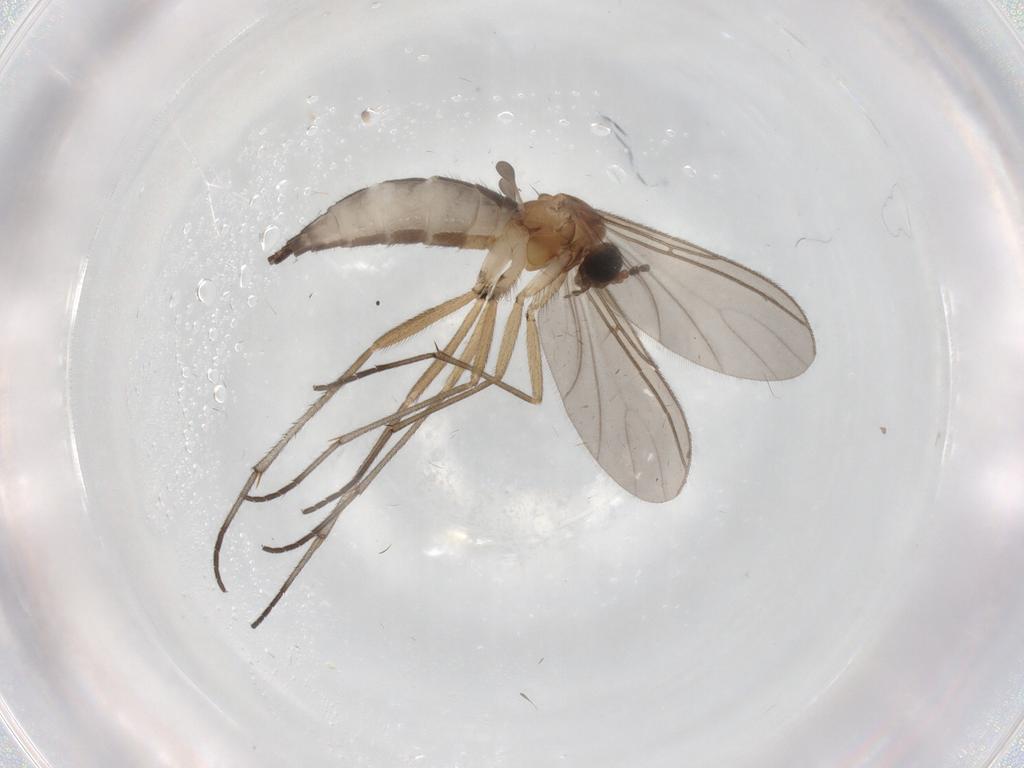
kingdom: Animalia
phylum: Arthropoda
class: Insecta
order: Diptera
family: Sciaridae
